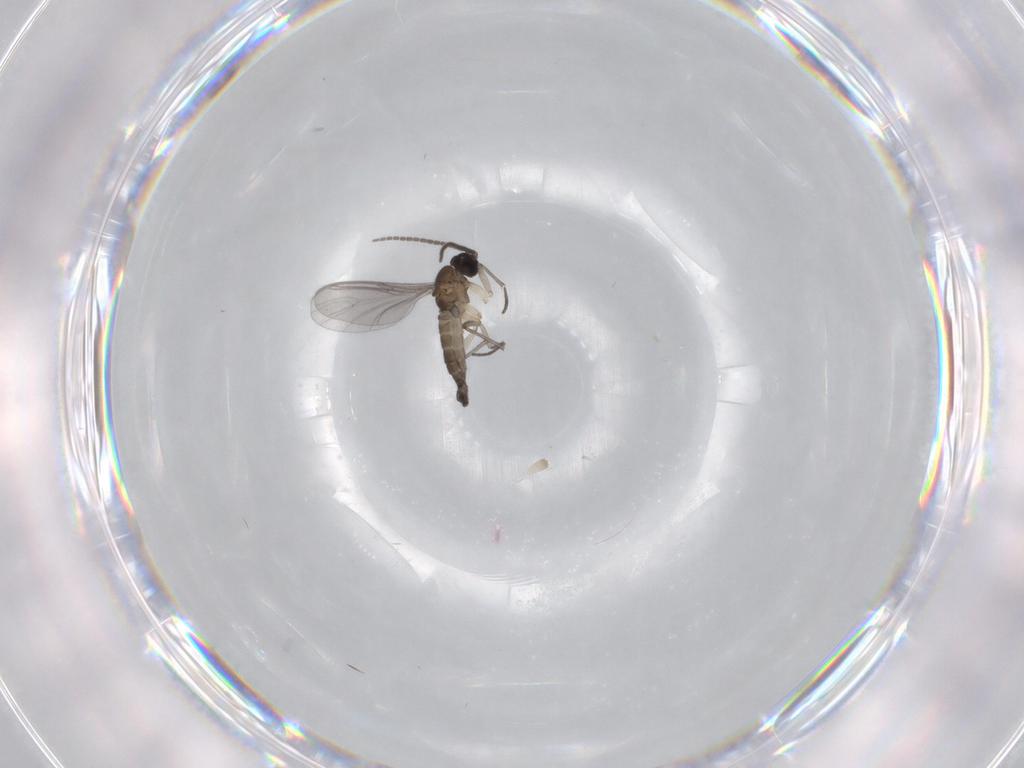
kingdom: Animalia
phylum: Arthropoda
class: Insecta
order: Diptera
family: Sciaridae
